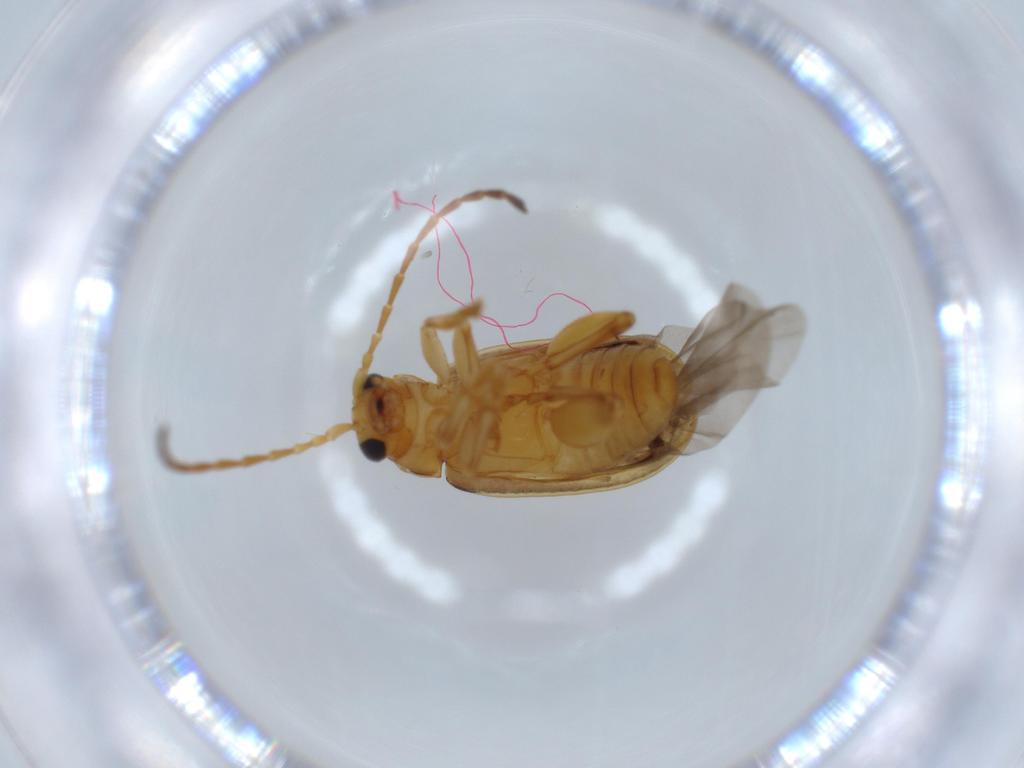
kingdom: Animalia
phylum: Arthropoda
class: Insecta
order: Coleoptera
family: Chrysomelidae
